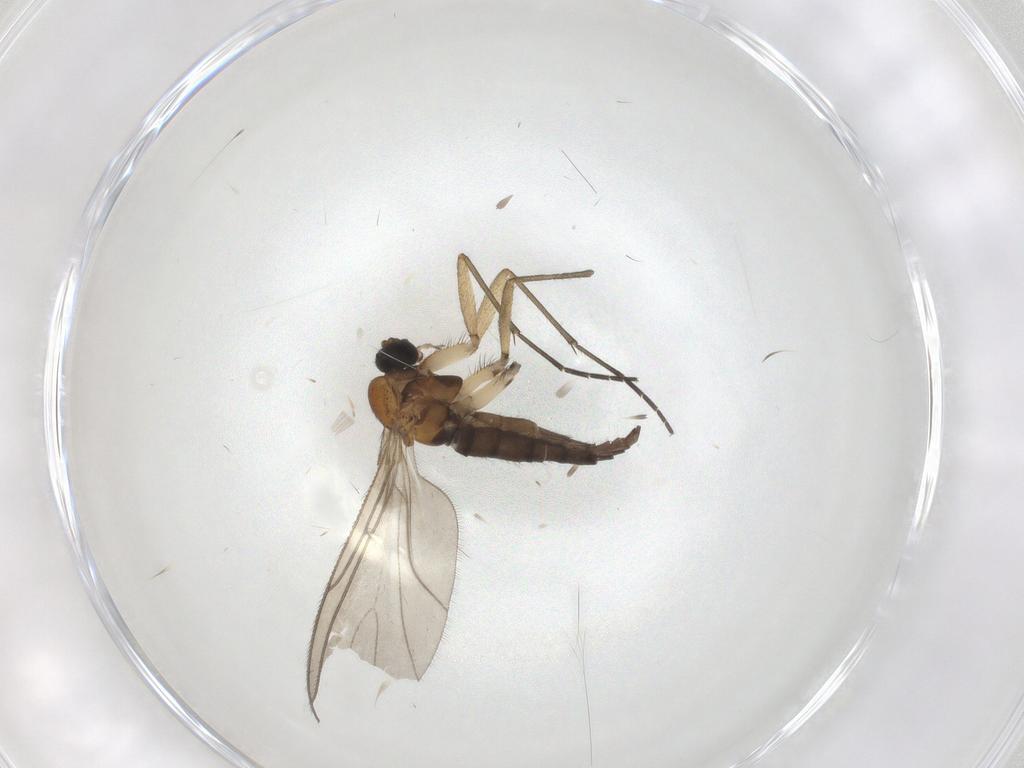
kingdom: Animalia
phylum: Arthropoda
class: Insecta
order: Diptera
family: Sciaridae
